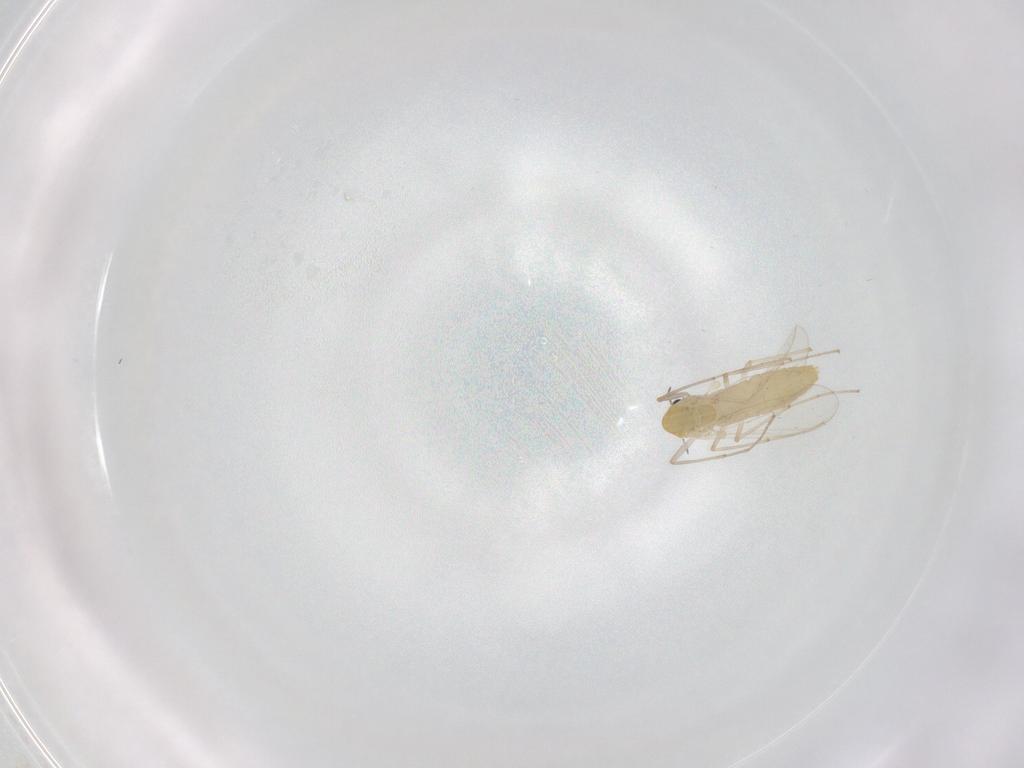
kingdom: Animalia
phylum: Arthropoda
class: Insecta
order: Diptera
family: Chironomidae
